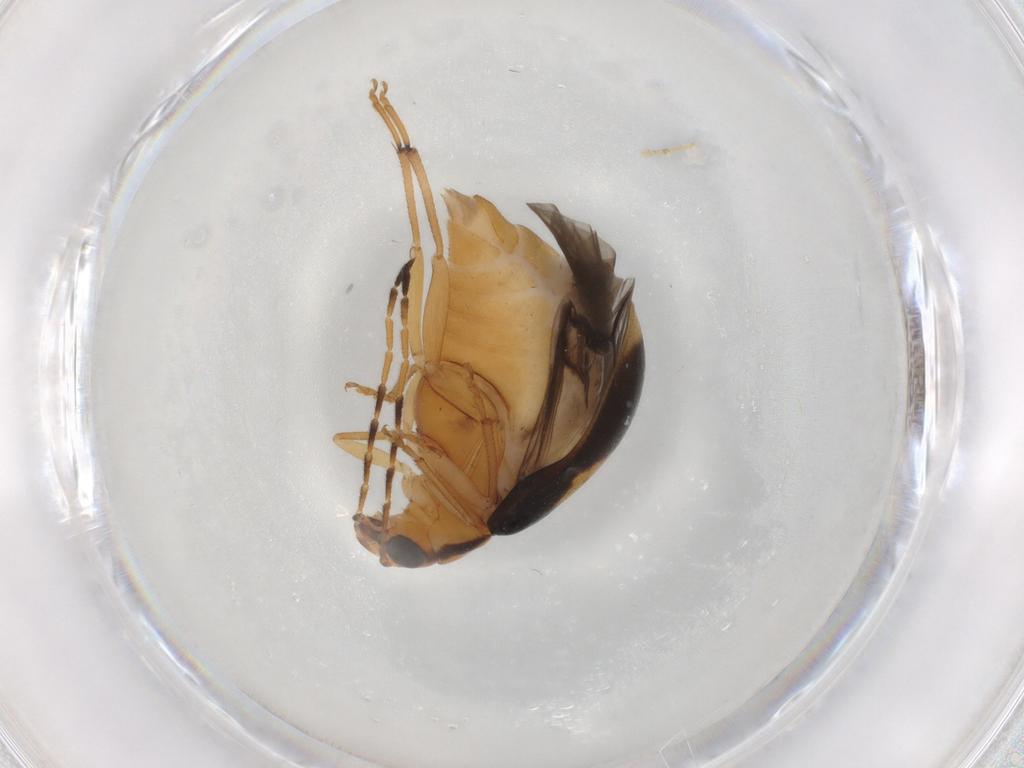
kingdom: Animalia
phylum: Arthropoda
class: Insecta
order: Coleoptera
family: Chrysomelidae
